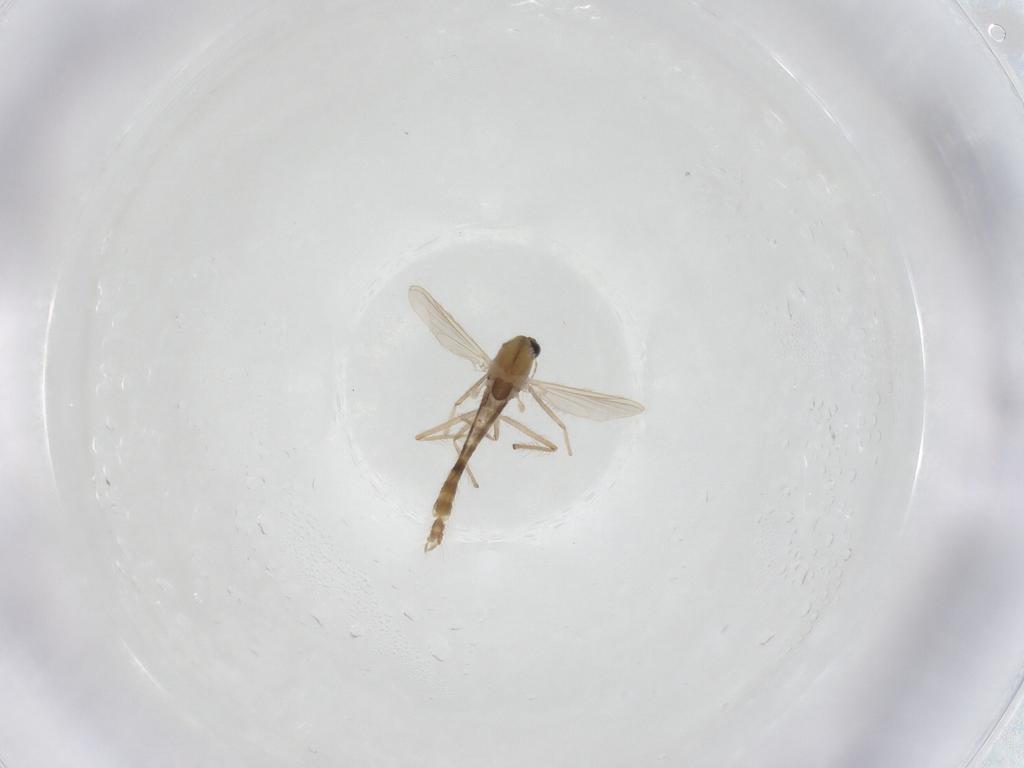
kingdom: Animalia
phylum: Arthropoda
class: Insecta
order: Diptera
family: Chironomidae
